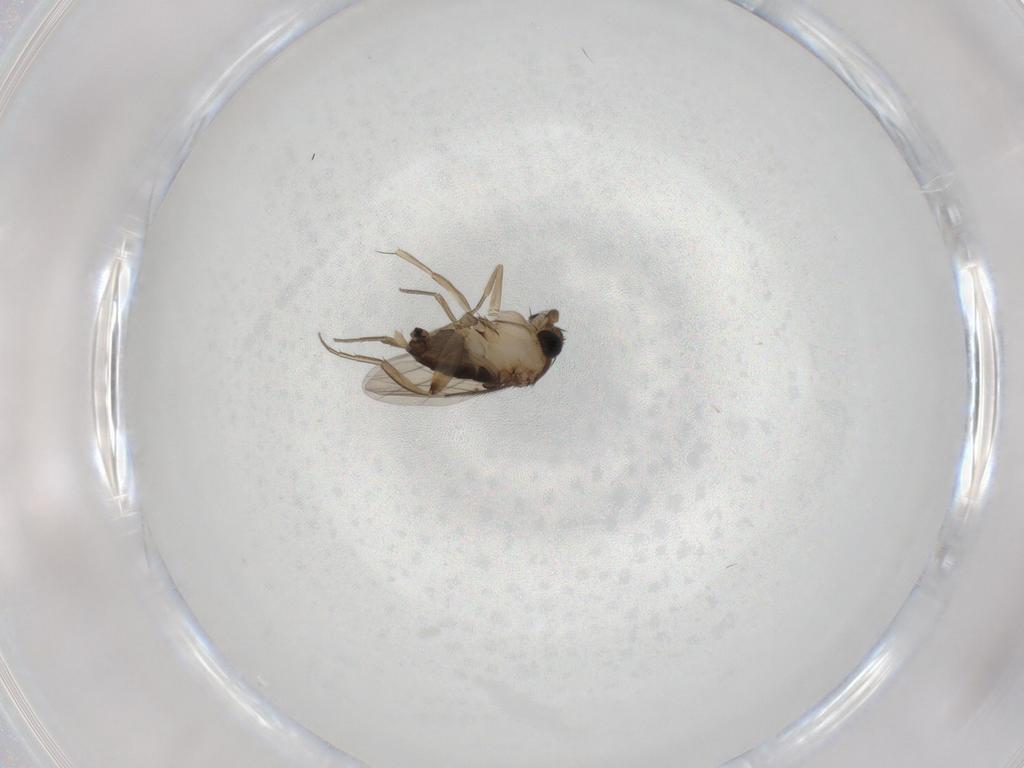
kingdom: Animalia
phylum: Arthropoda
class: Insecta
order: Diptera
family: Phoridae
